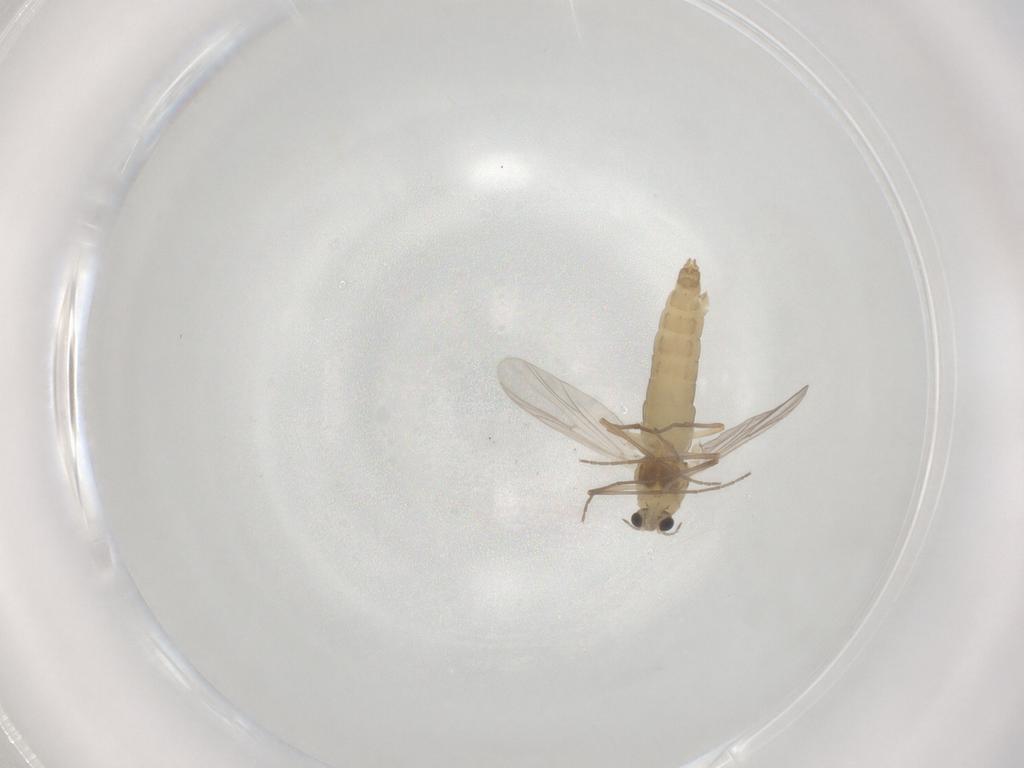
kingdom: Animalia
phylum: Arthropoda
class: Insecta
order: Diptera
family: Chironomidae
